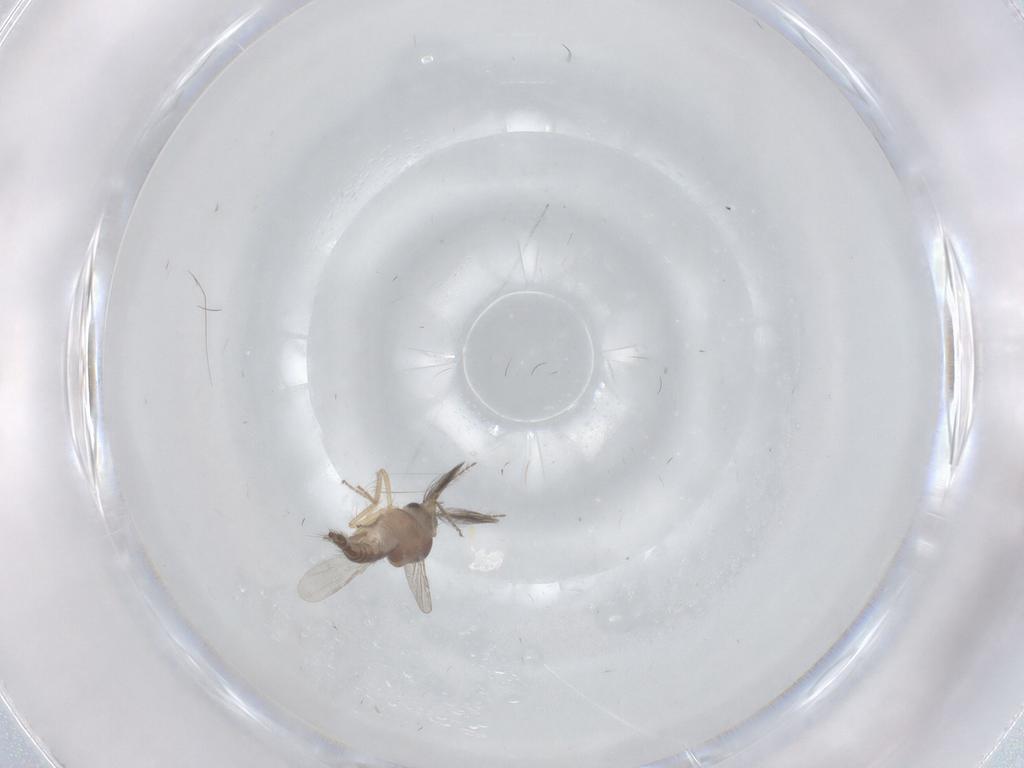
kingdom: Animalia
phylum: Arthropoda
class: Insecta
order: Diptera
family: Ceratopogonidae
